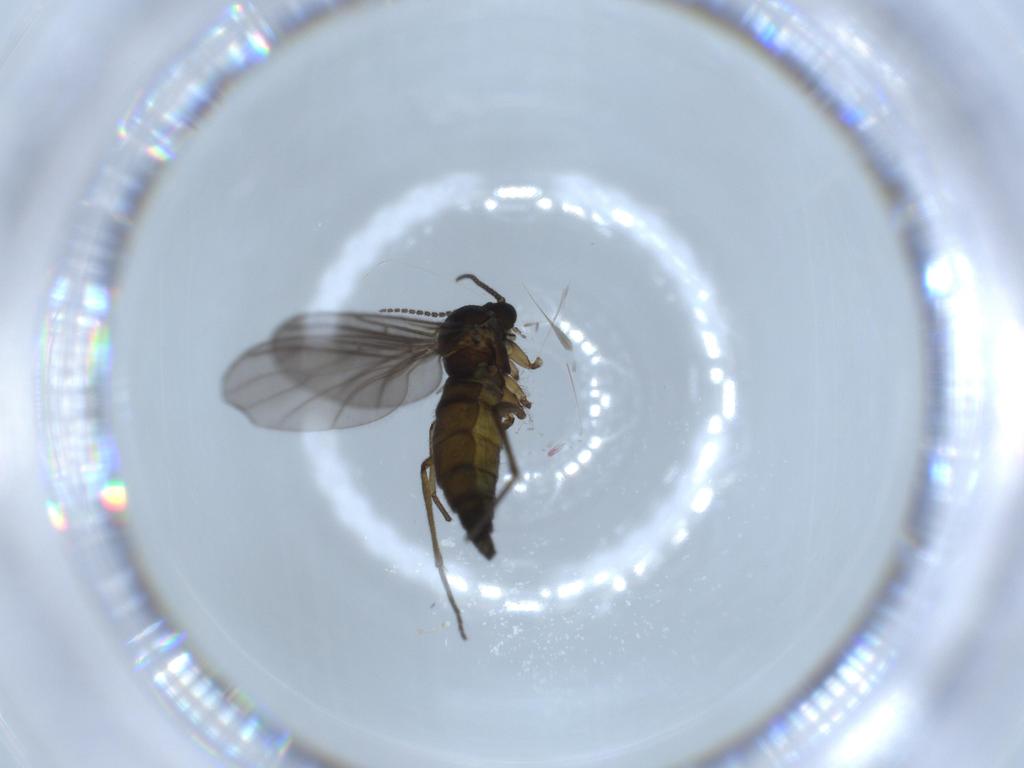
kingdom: Animalia
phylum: Arthropoda
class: Insecta
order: Diptera
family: Sciaridae
